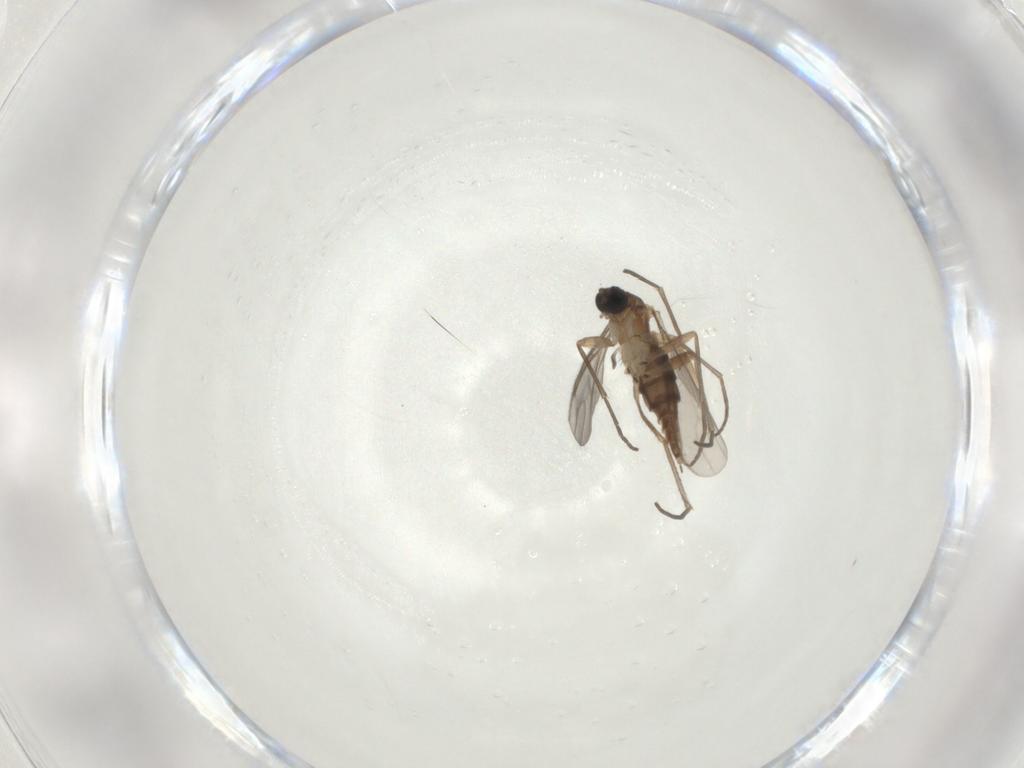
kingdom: Animalia
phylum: Arthropoda
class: Insecta
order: Diptera
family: Sciaridae
